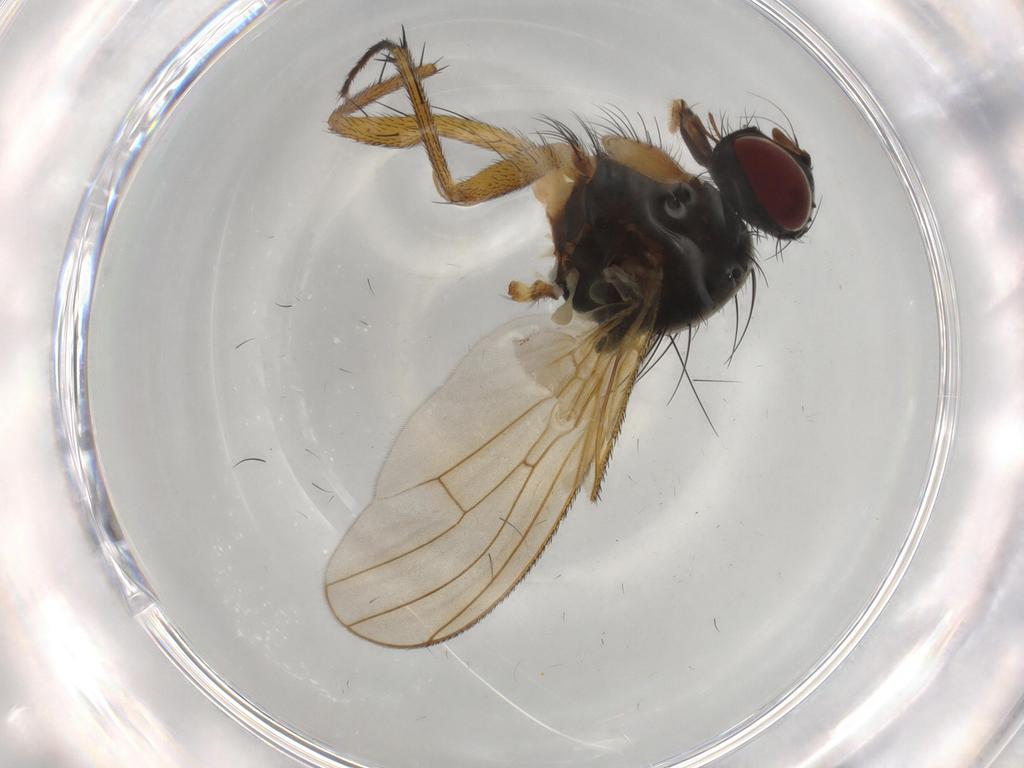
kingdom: Animalia
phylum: Arthropoda
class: Insecta
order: Diptera
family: Muscidae
